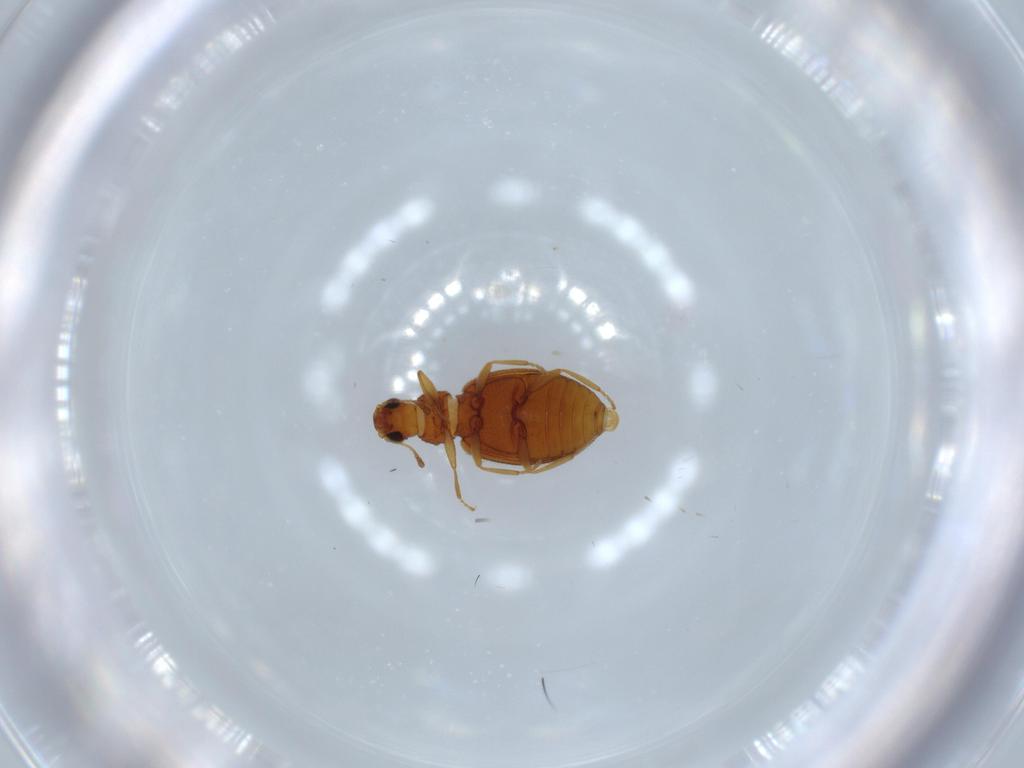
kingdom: Animalia
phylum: Arthropoda
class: Insecta
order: Coleoptera
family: Latridiidae
